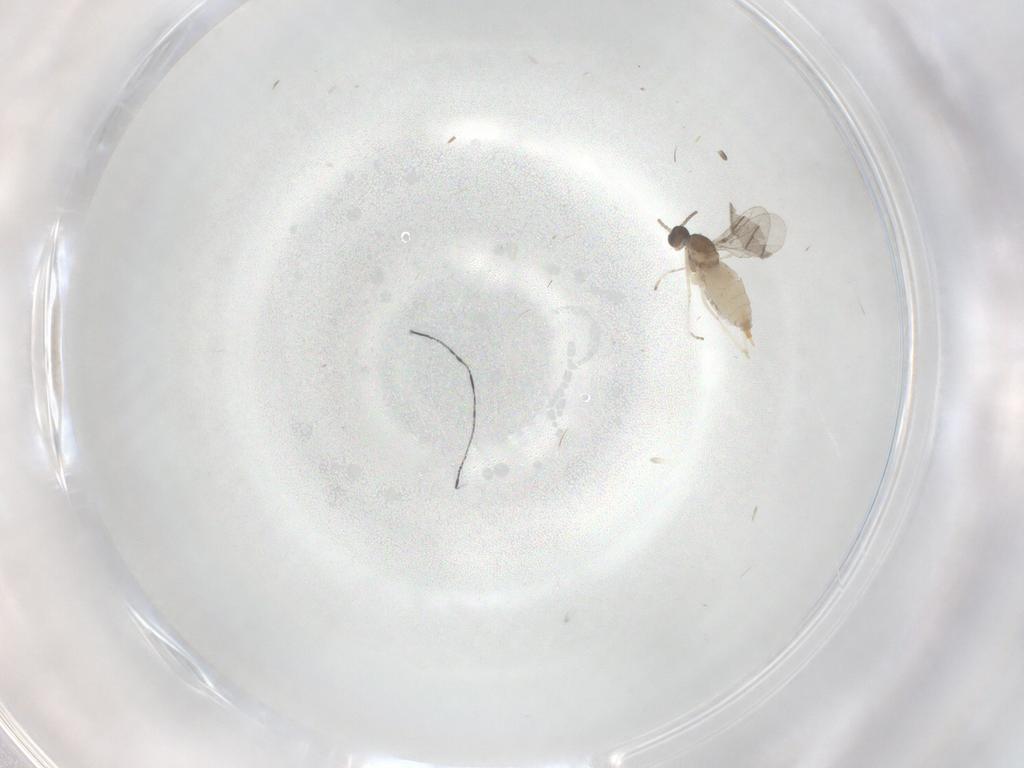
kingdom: Animalia
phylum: Arthropoda
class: Insecta
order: Diptera
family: Cecidomyiidae
